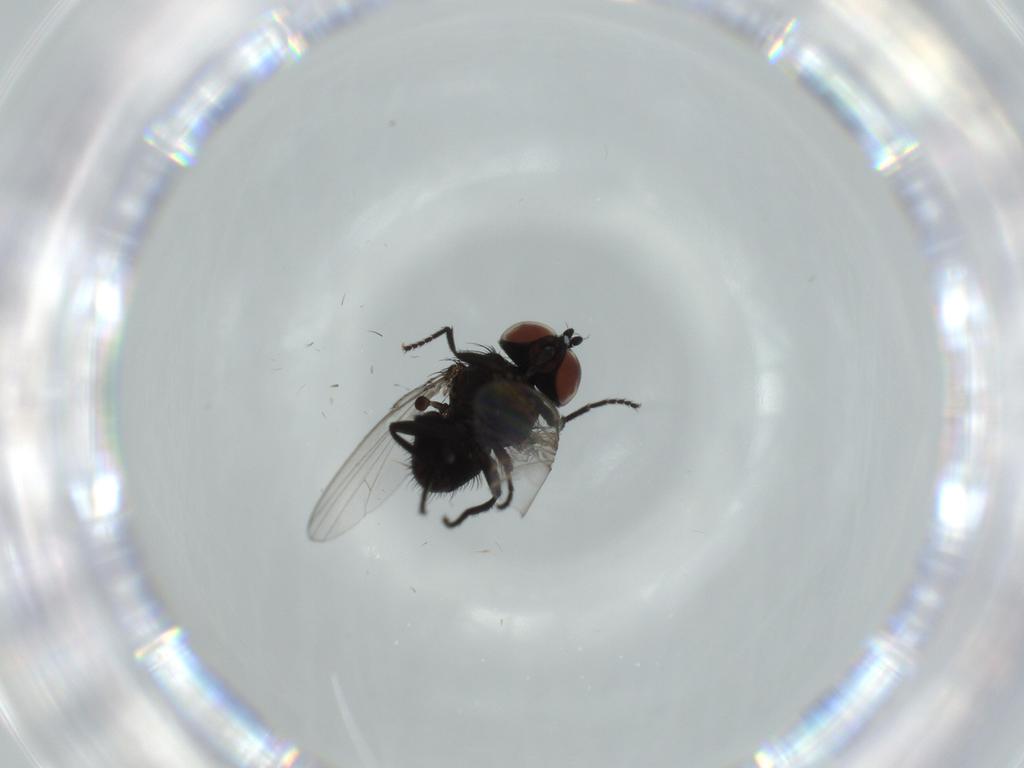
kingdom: Animalia
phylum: Arthropoda
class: Insecta
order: Diptera
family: Milichiidae
